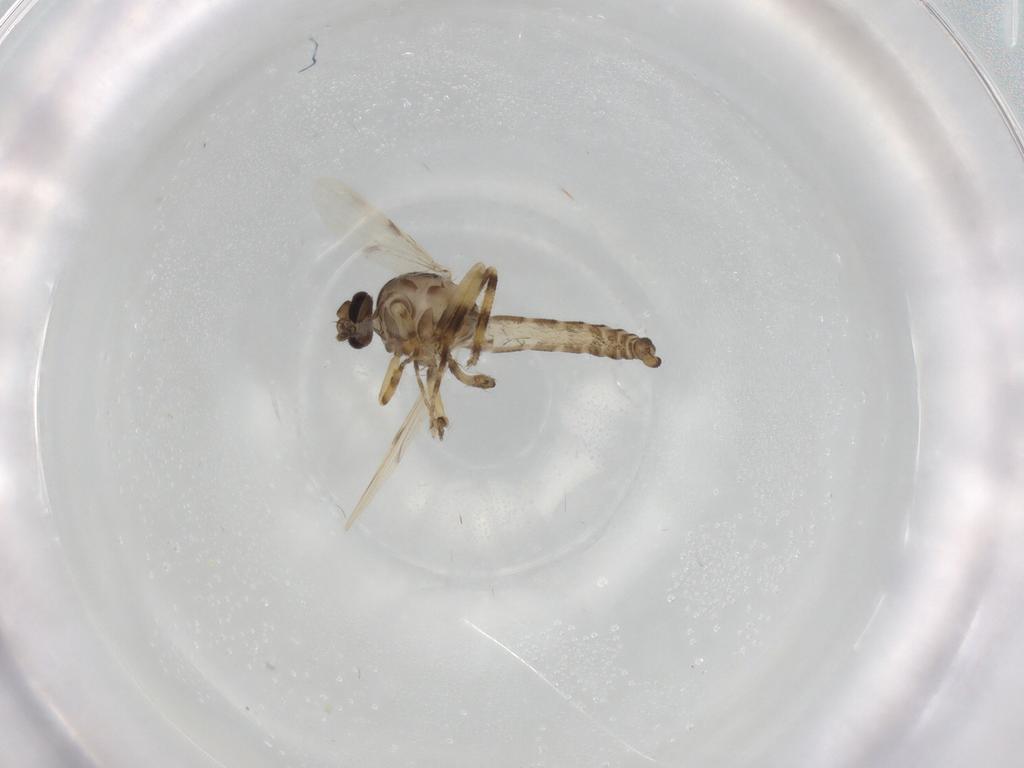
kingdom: Animalia
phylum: Arthropoda
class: Insecta
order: Diptera
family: Ceratopogonidae
